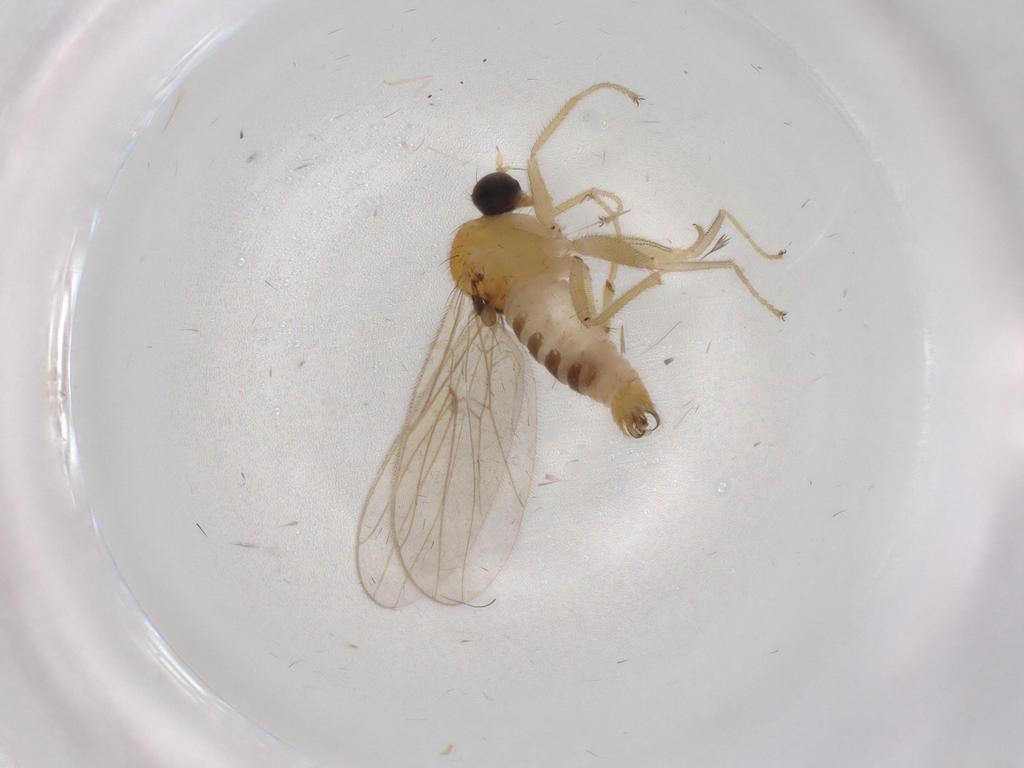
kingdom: Animalia
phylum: Arthropoda
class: Insecta
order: Diptera
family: Hybotidae
